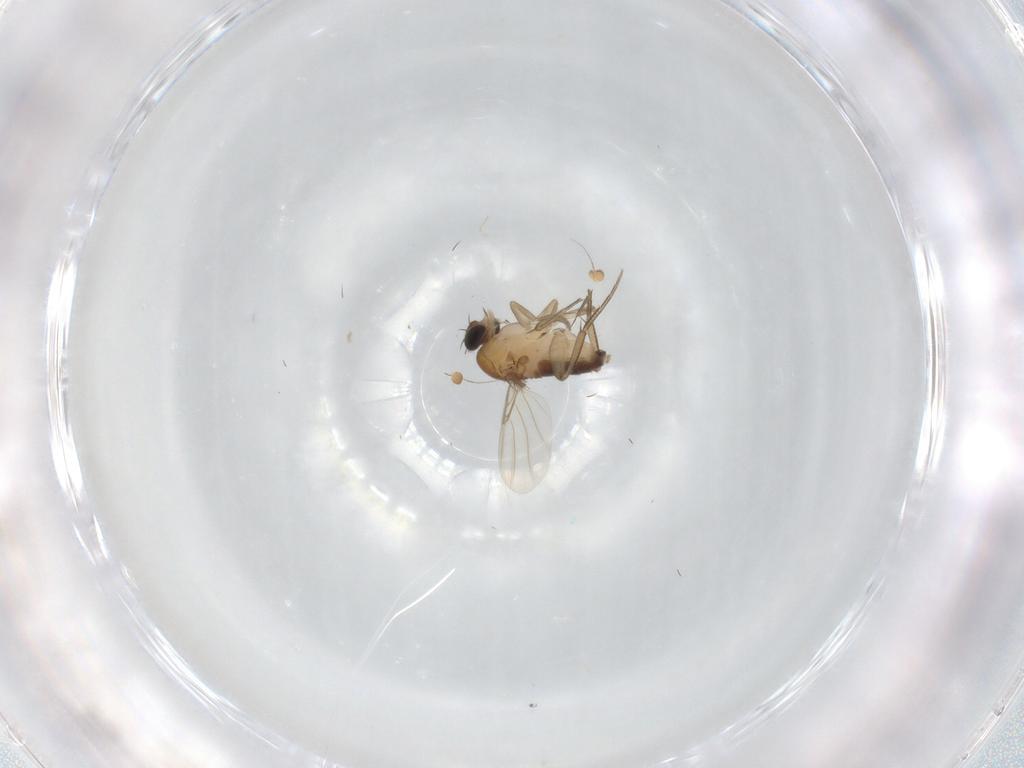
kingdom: Animalia
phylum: Arthropoda
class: Insecta
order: Diptera
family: Phoridae
